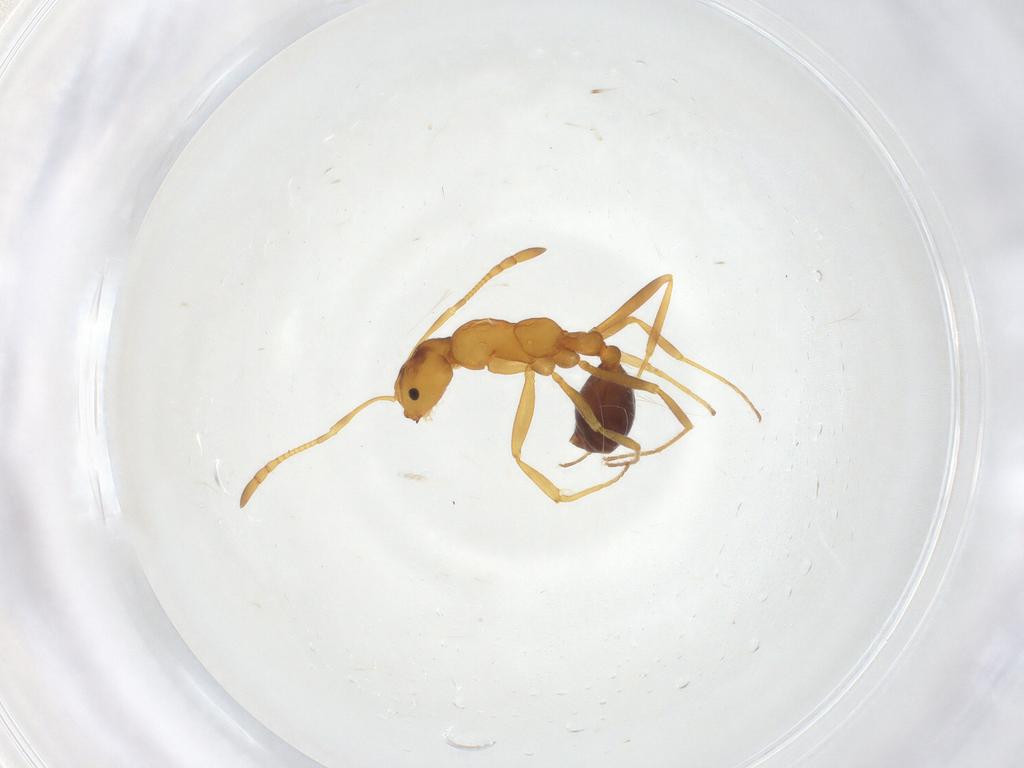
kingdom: Animalia
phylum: Arthropoda
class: Insecta
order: Hymenoptera
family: Formicidae
